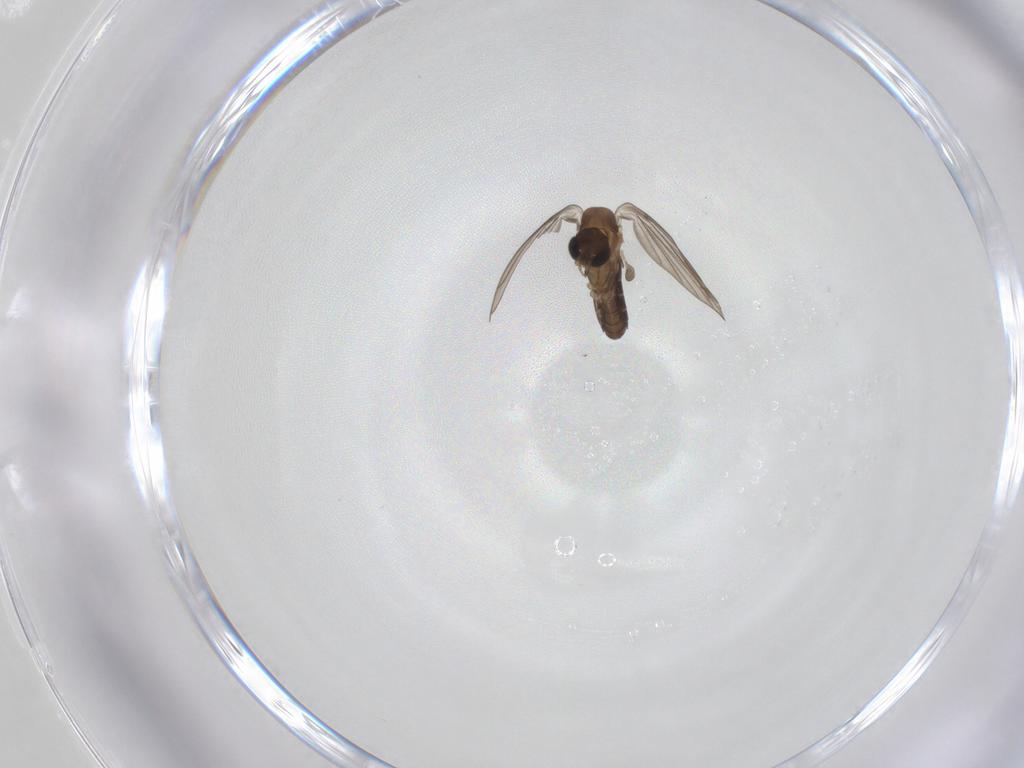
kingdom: Animalia
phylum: Arthropoda
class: Insecta
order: Diptera
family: Psychodidae
